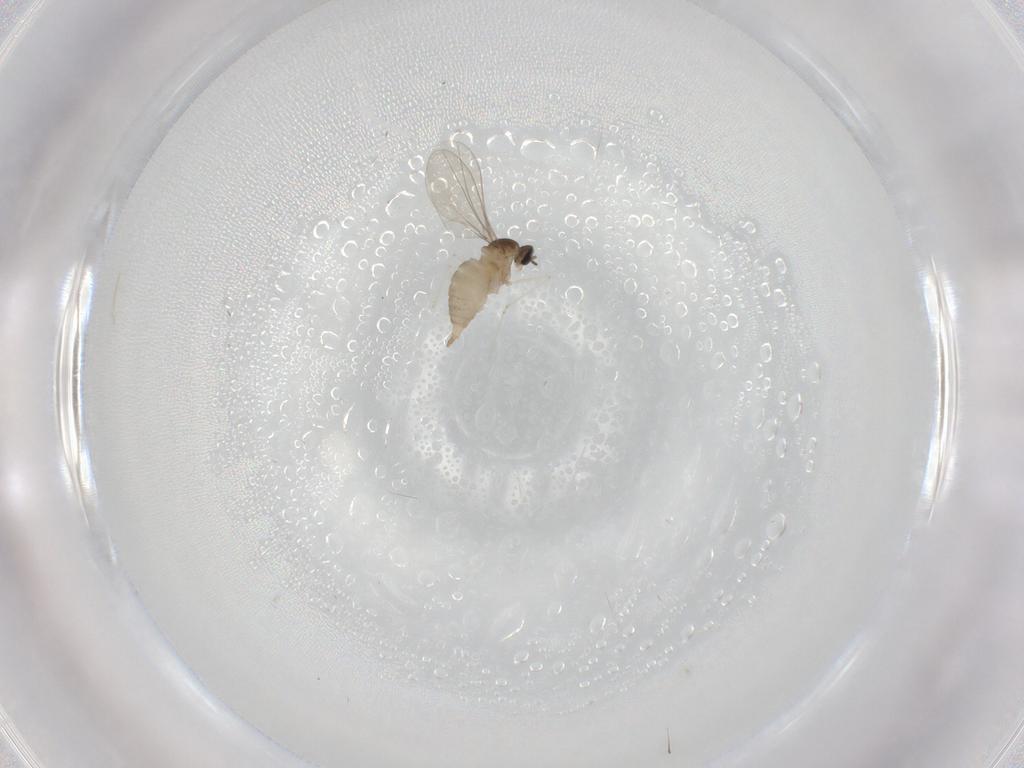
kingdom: Animalia
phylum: Arthropoda
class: Insecta
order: Diptera
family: Cecidomyiidae
